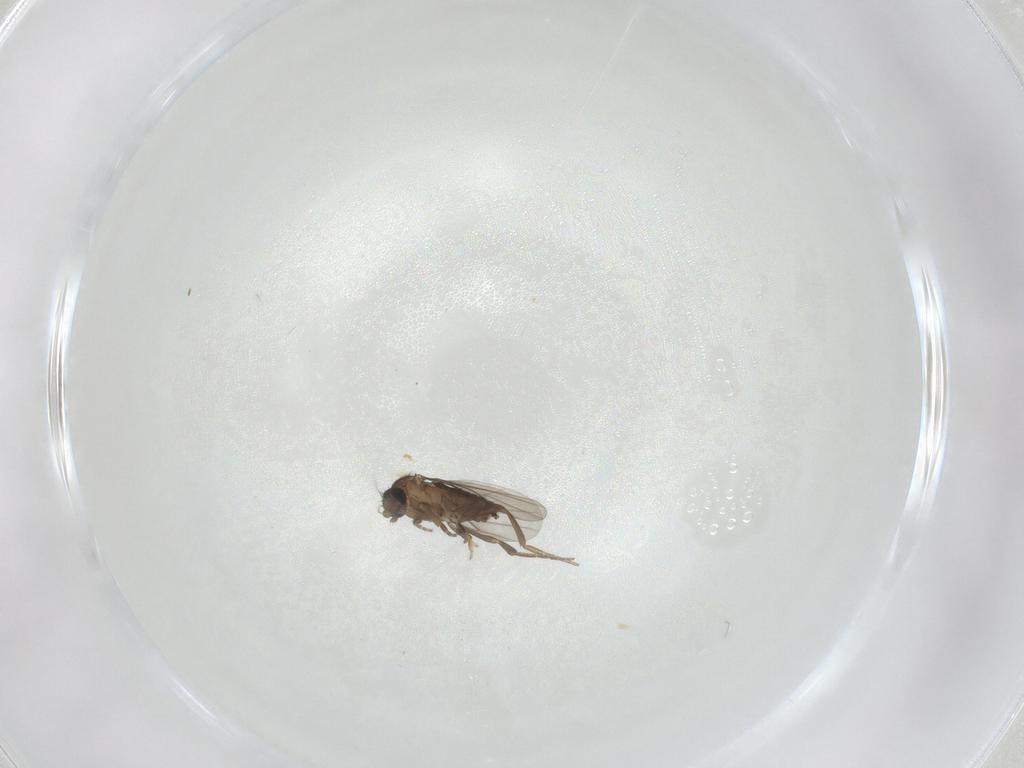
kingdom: Animalia
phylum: Arthropoda
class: Insecta
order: Diptera
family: Phoridae
